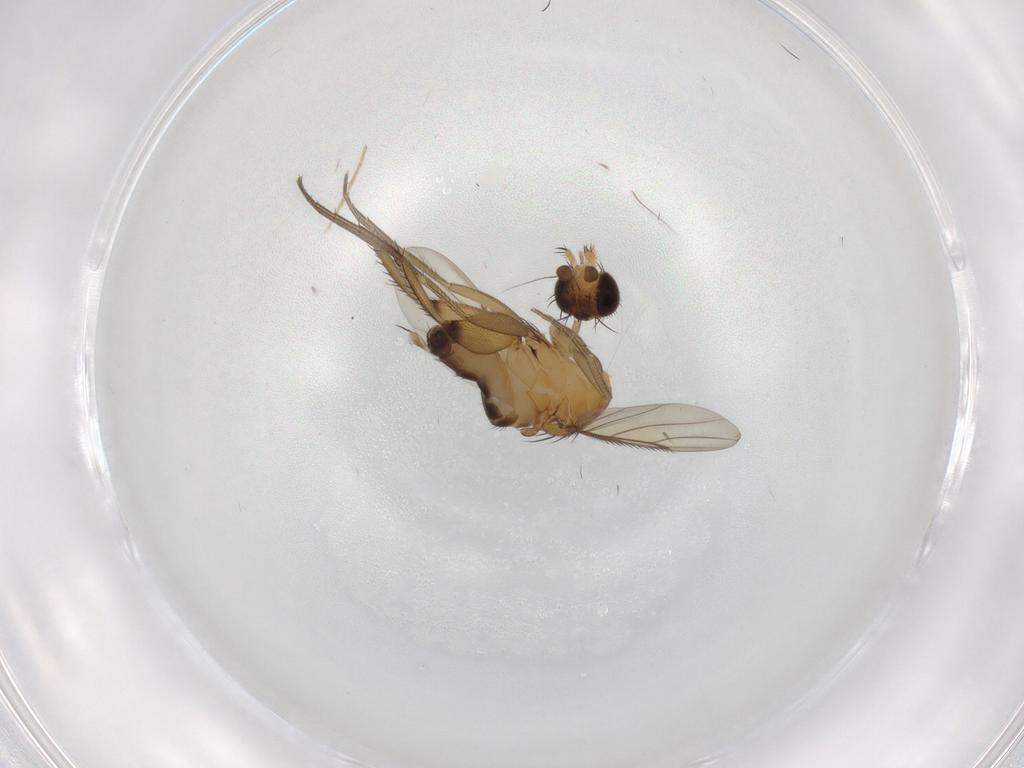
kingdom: Animalia
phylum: Arthropoda
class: Insecta
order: Diptera
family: Phoridae
